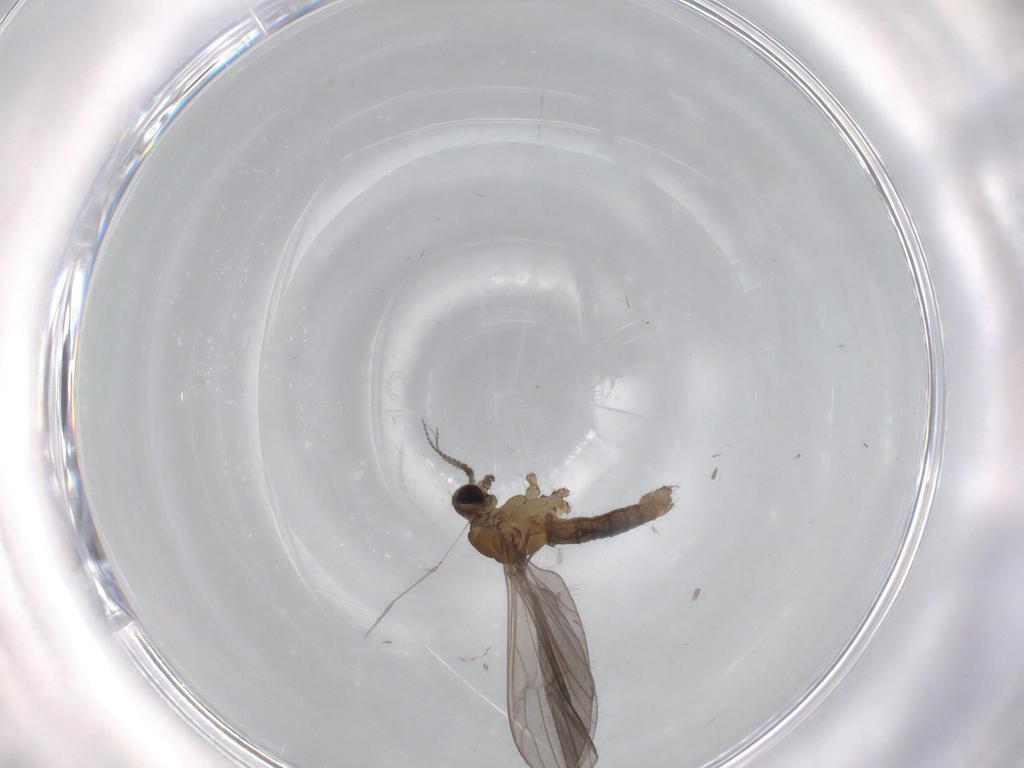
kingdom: Animalia
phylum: Arthropoda
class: Insecta
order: Diptera
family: Limoniidae
